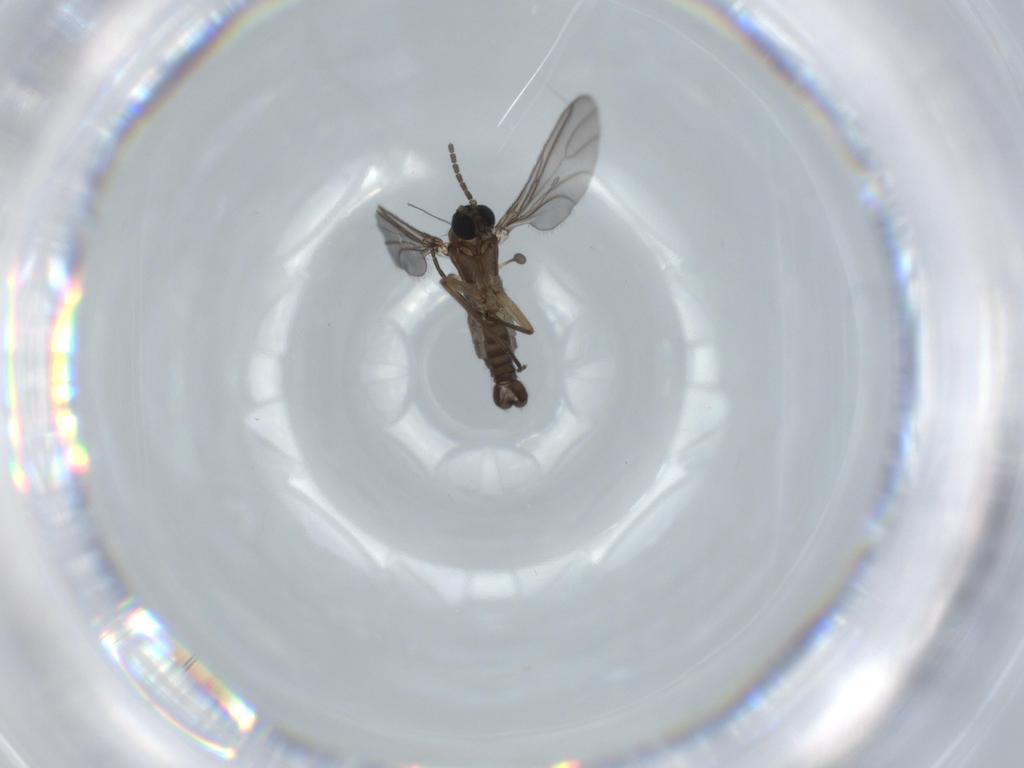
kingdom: Animalia
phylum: Arthropoda
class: Insecta
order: Diptera
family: Sciaridae
